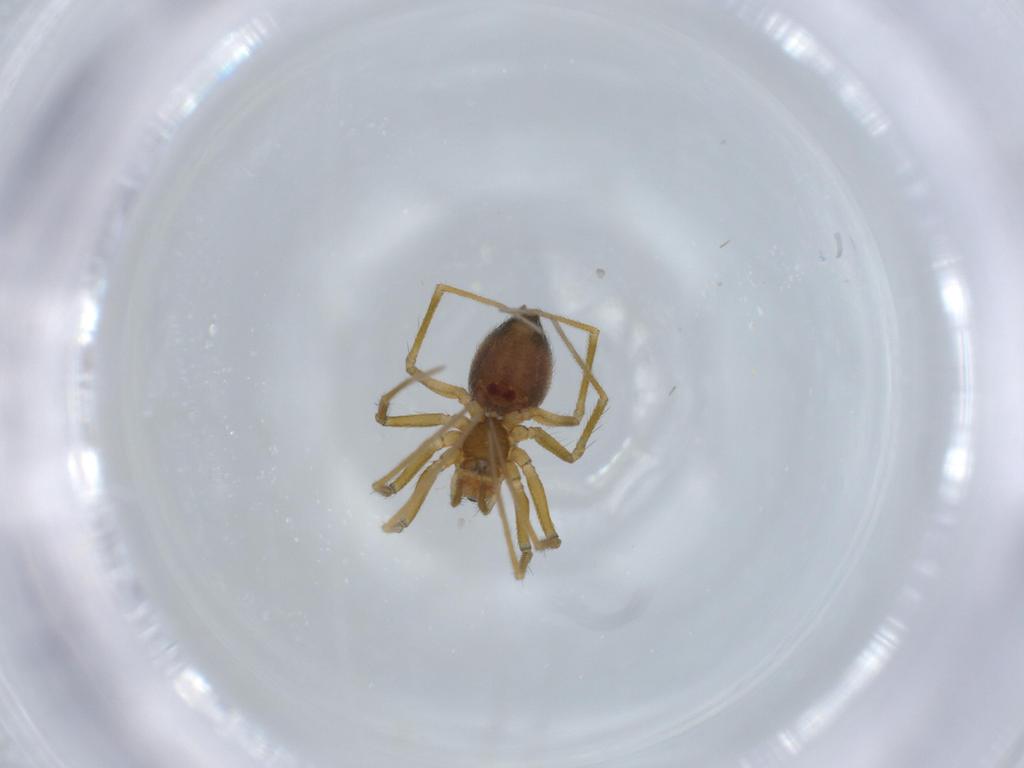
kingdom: Animalia
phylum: Arthropoda
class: Arachnida
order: Araneae
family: Linyphiidae
